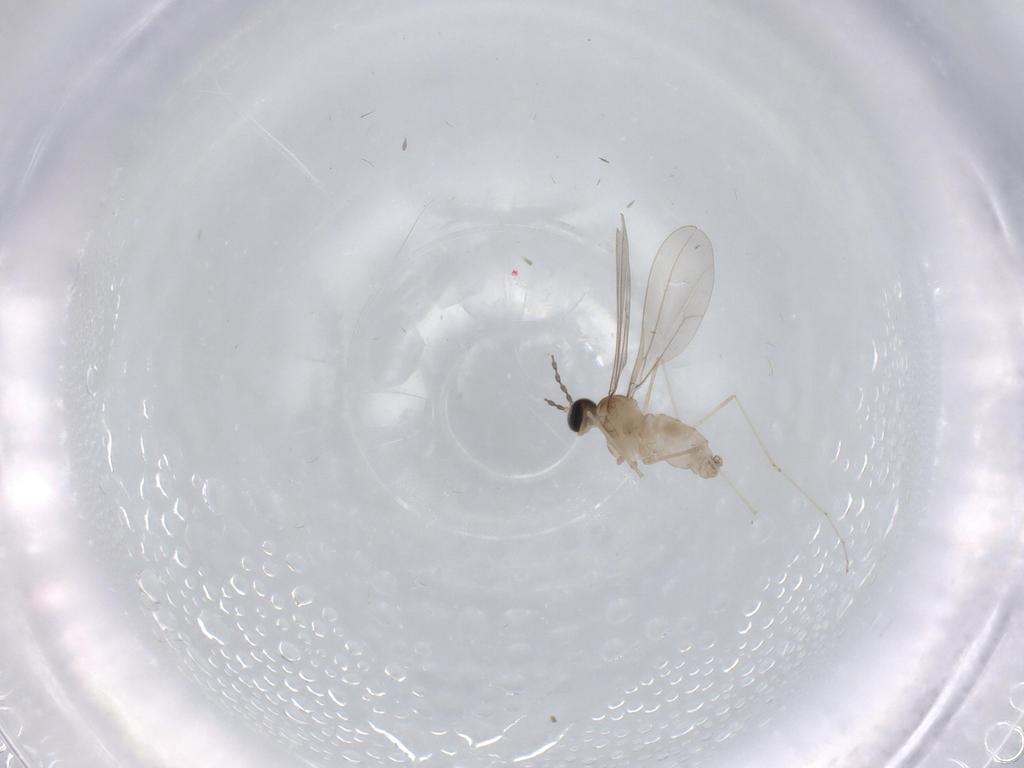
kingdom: Animalia
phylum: Arthropoda
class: Insecta
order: Diptera
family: Cecidomyiidae
